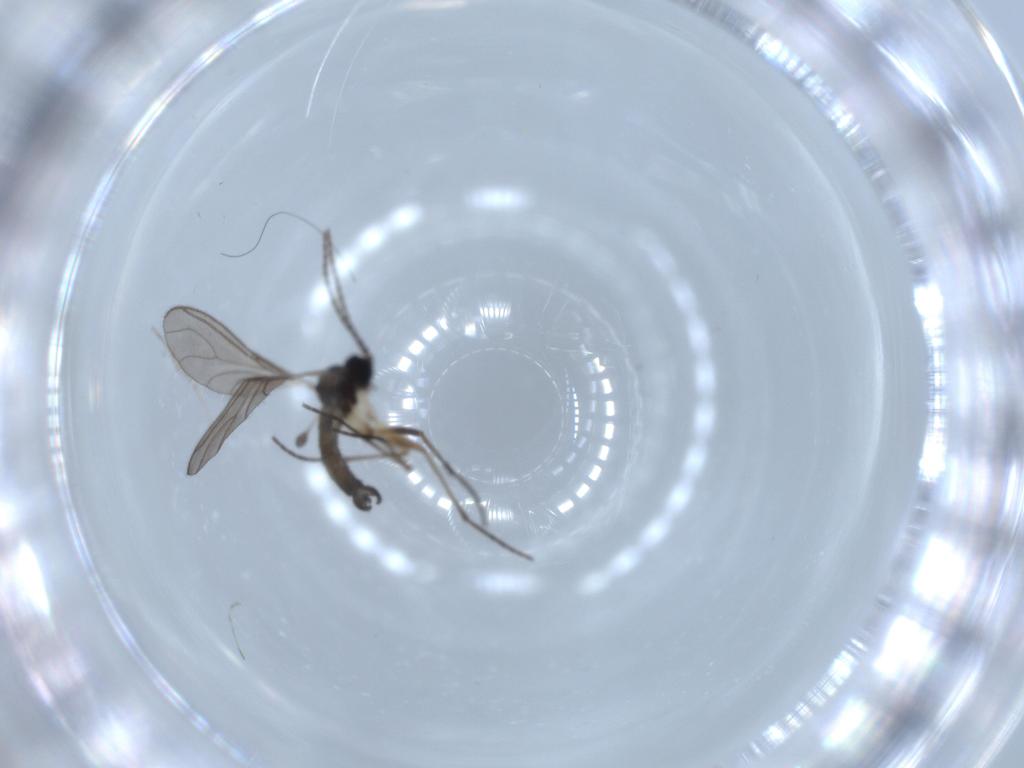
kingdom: Animalia
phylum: Arthropoda
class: Insecta
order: Diptera
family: Sciaridae
